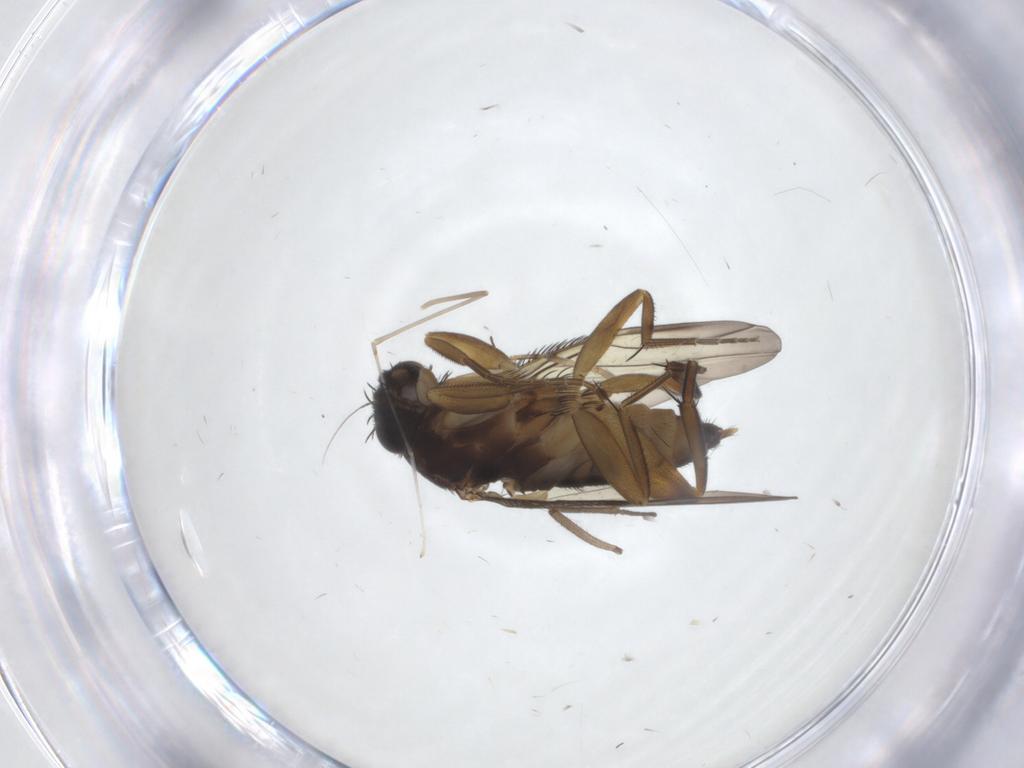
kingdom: Animalia
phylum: Arthropoda
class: Insecta
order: Diptera
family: Phoridae
